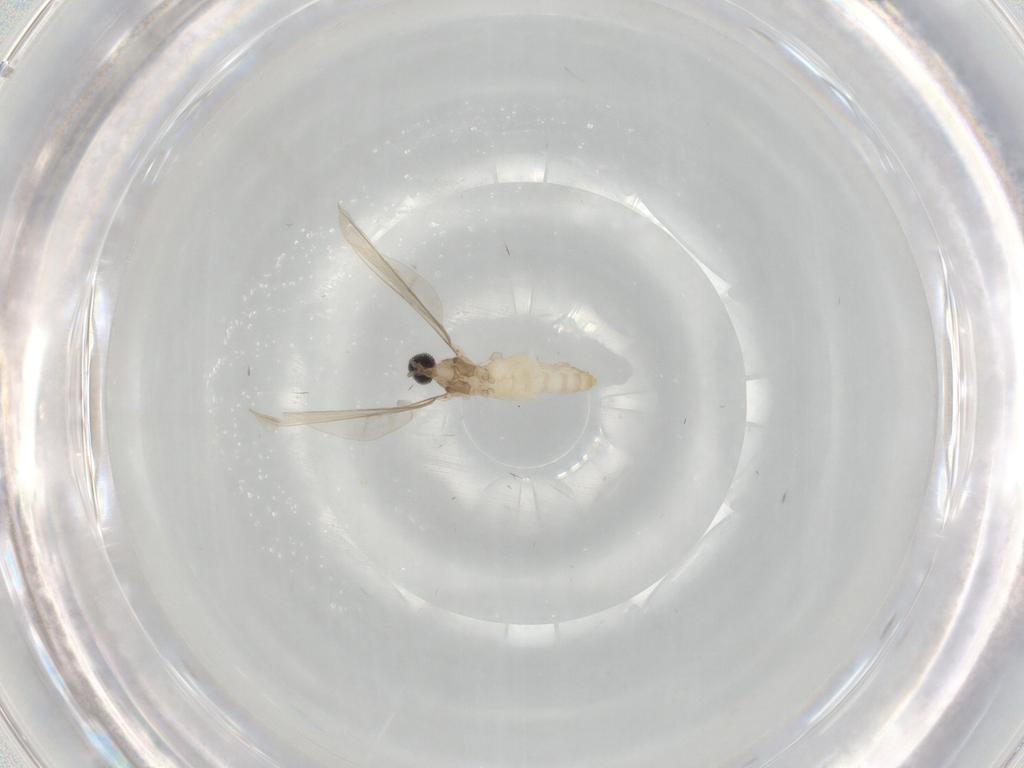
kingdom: Animalia
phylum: Arthropoda
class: Insecta
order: Diptera
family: Cecidomyiidae
